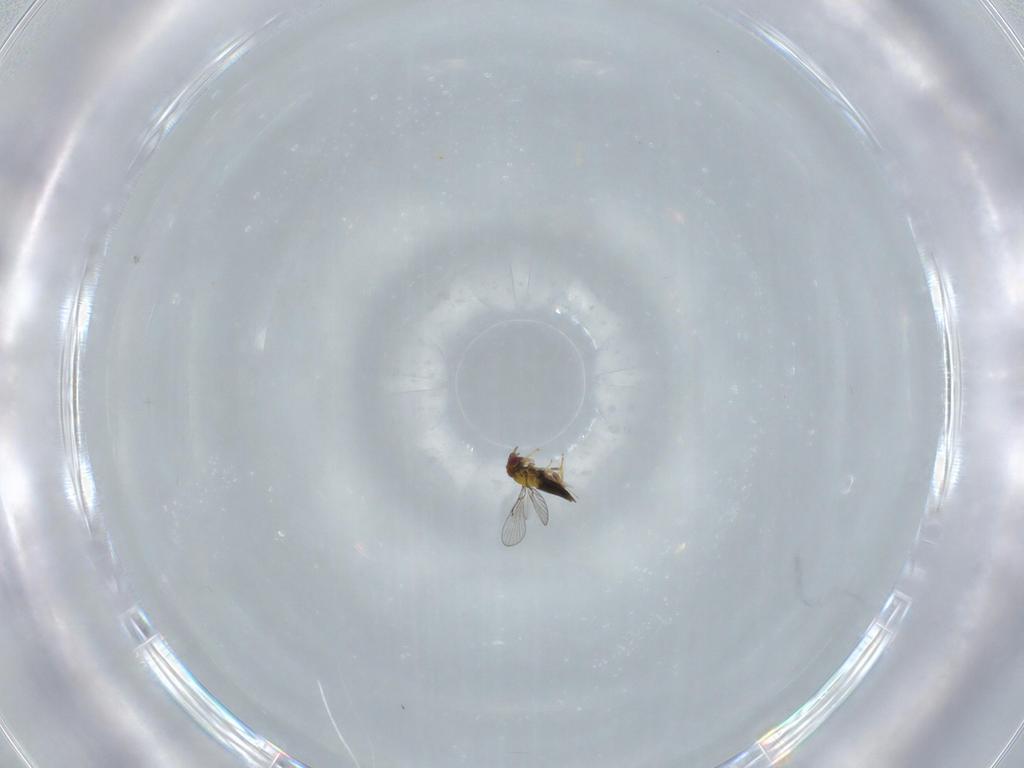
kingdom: Animalia
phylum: Arthropoda
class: Insecta
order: Hymenoptera
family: Trichogrammatidae
